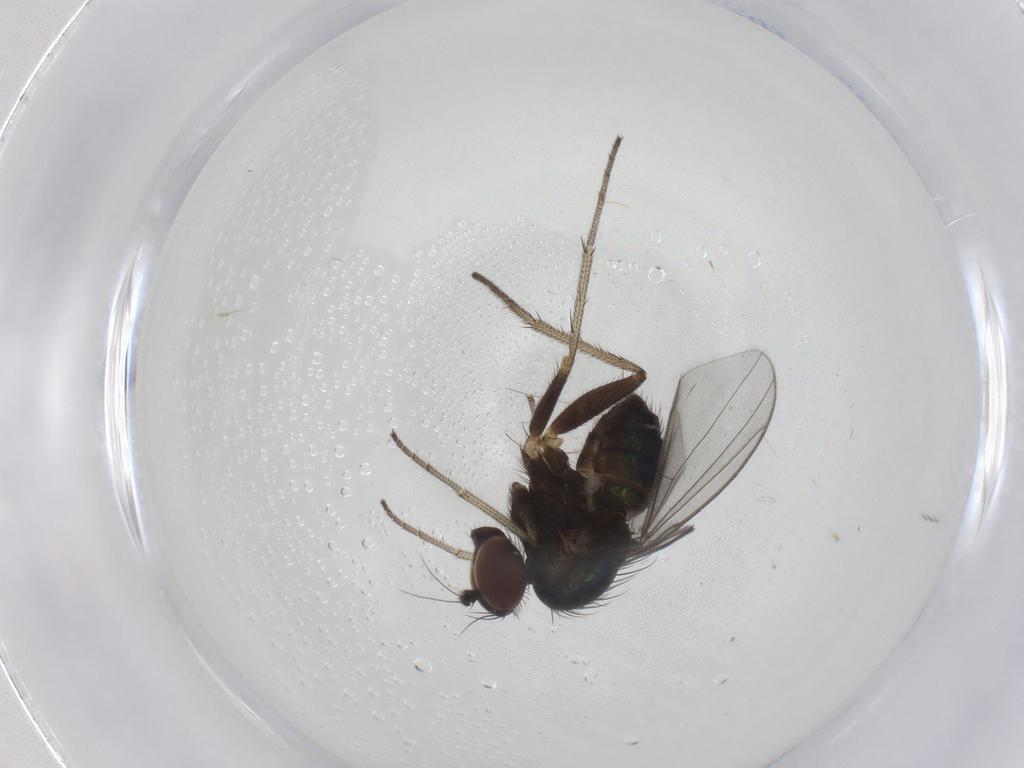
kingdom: Animalia
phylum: Arthropoda
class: Insecta
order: Diptera
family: Dolichopodidae
